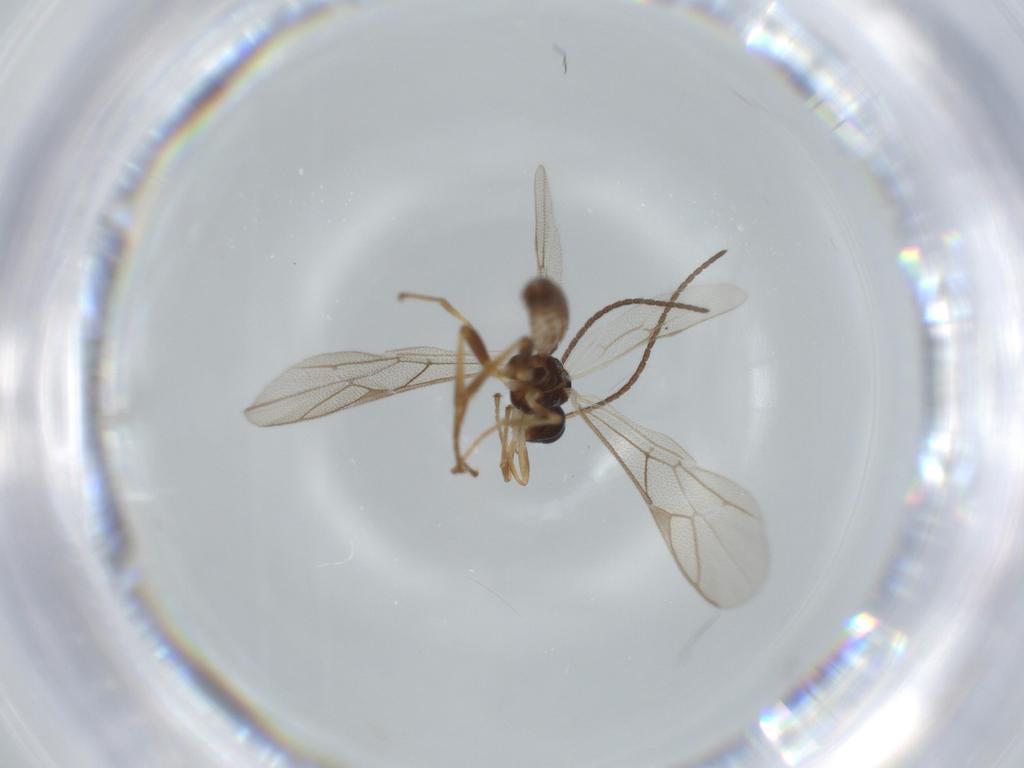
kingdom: Animalia
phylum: Arthropoda
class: Insecta
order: Hymenoptera
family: Ichneumonidae
